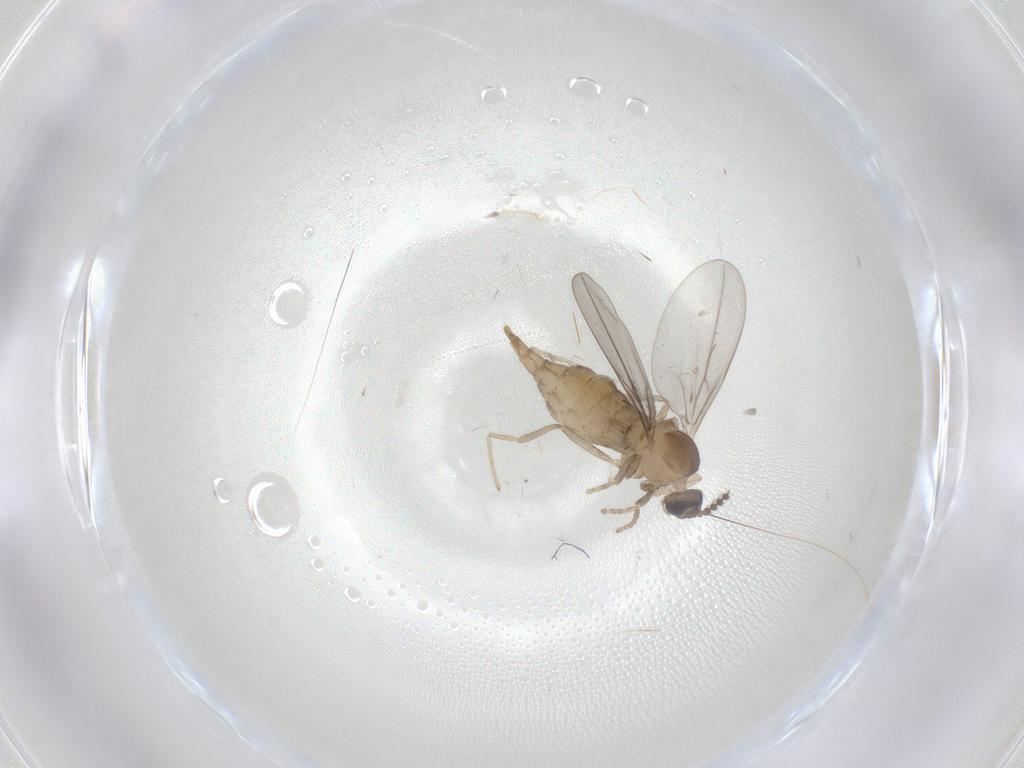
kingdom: Animalia
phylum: Arthropoda
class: Insecta
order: Diptera
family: Cecidomyiidae
